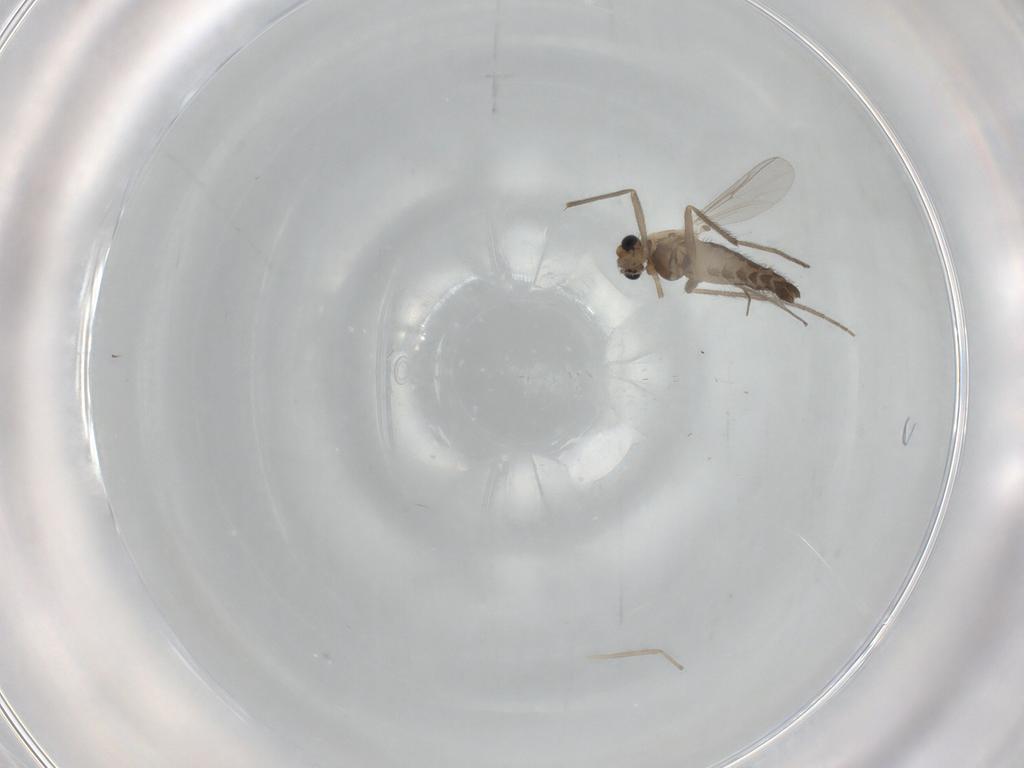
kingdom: Animalia
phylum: Arthropoda
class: Insecta
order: Diptera
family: Chironomidae
